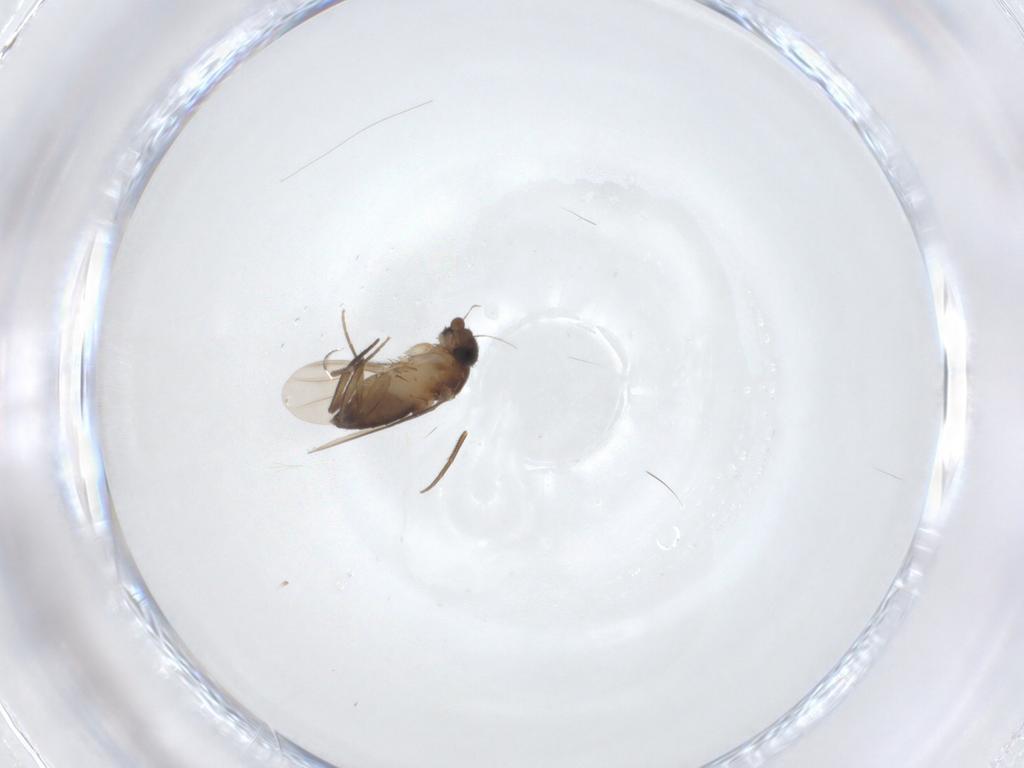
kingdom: Animalia
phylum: Arthropoda
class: Insecta
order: Diptera
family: Phoridae
